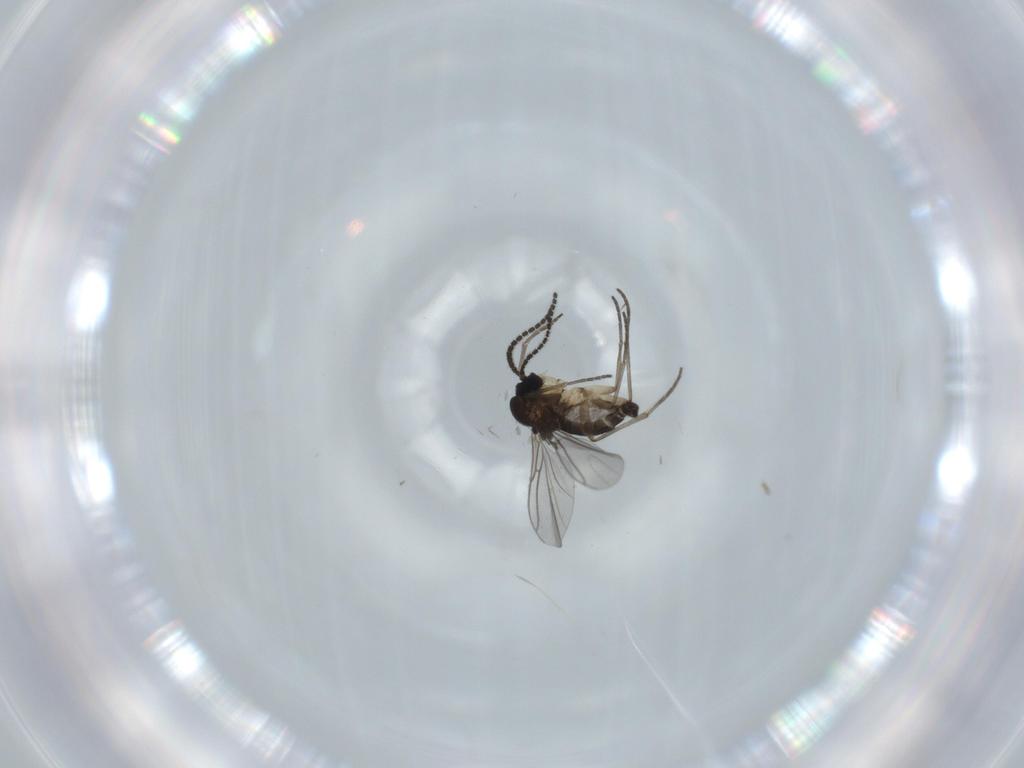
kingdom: Animalia
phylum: Arthropoda
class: Insecta
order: Diptera
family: Sciaridae
